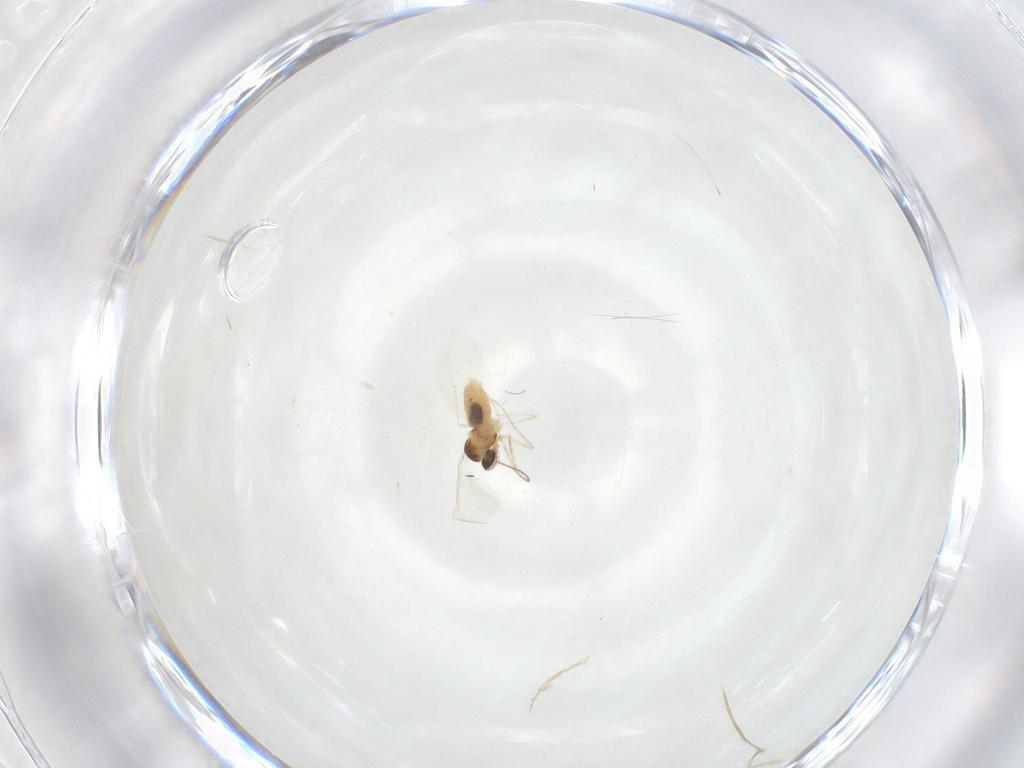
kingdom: Animalia
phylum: Arthropoda
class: Insecta
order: Diptera
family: Cecidomyiidae
